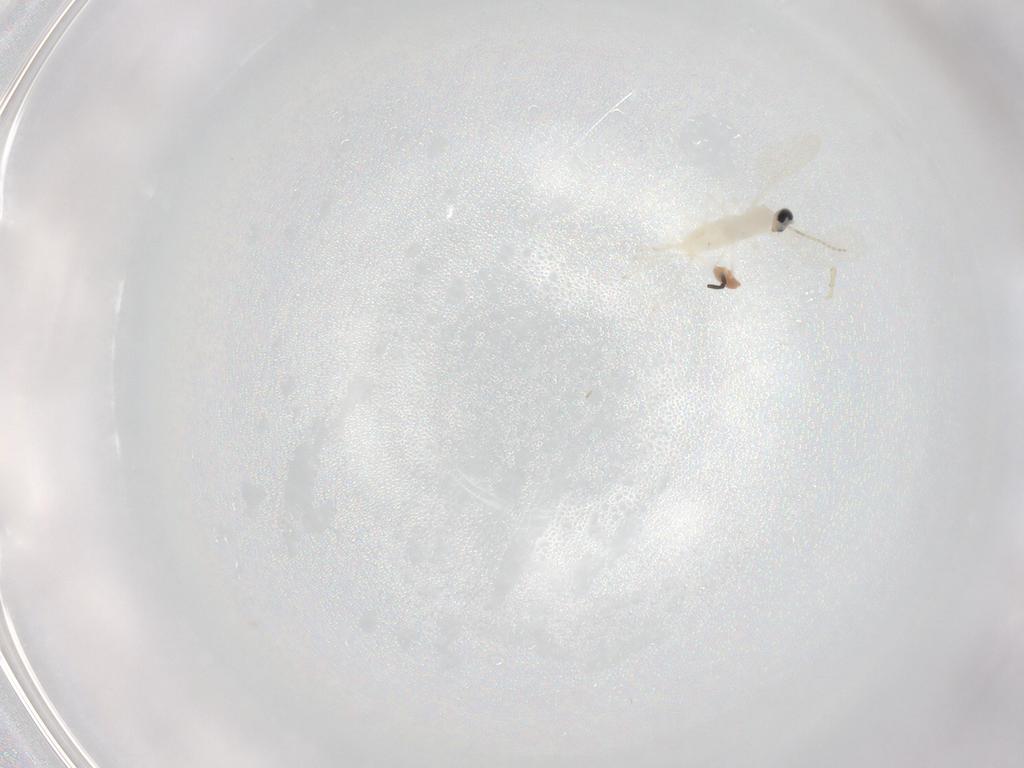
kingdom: Animalia
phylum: Arthropoda
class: Insecta
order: Diptera
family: Cecidomyiidae
